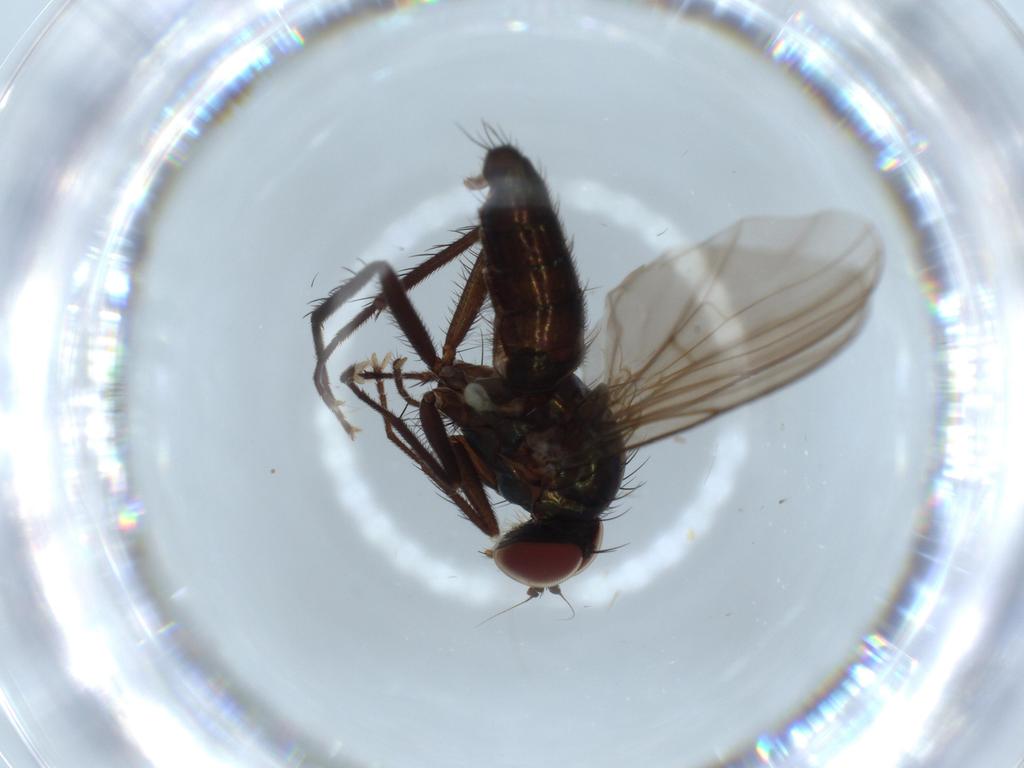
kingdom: Animalia
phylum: Arthropoda
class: Insecta
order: Diptera
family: Dolichopodidae
